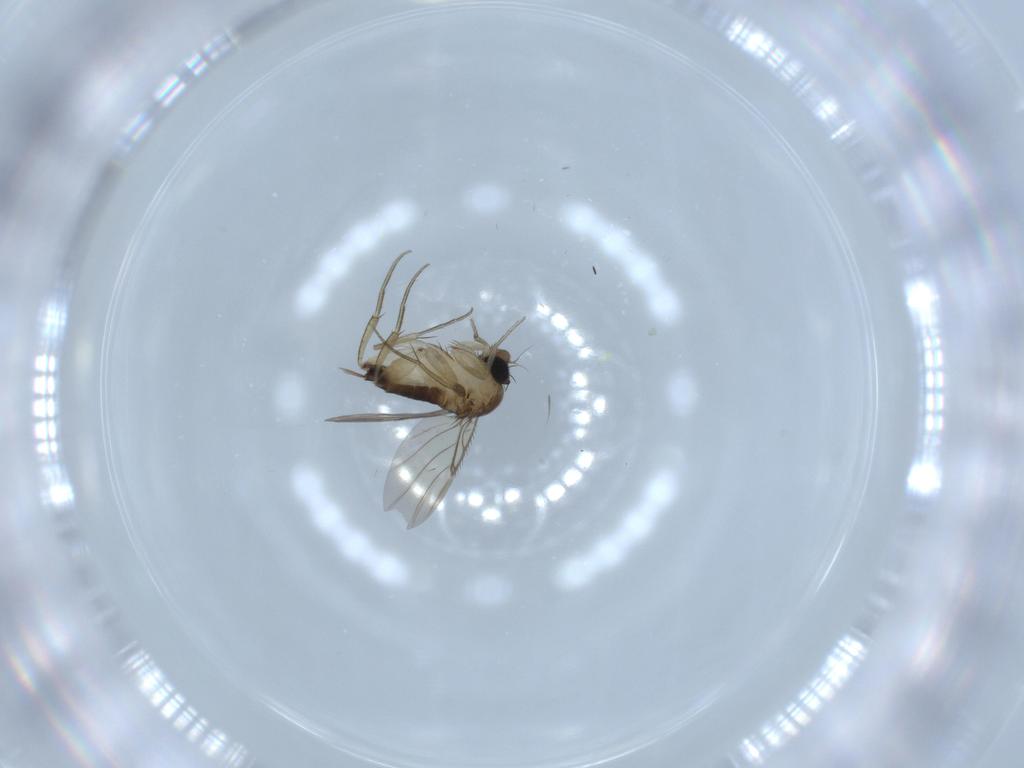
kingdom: Animalia
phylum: Arthropoda
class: Insecta
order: Diptera
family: Phoridae
